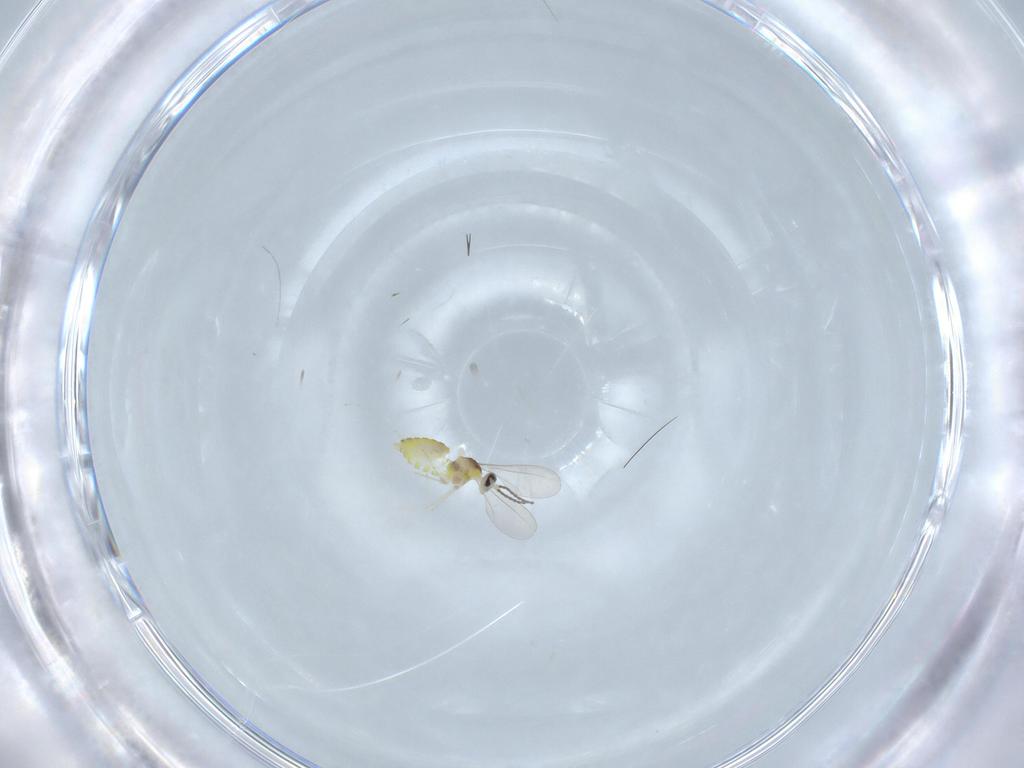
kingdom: Animalia
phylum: Arthropoda
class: Insecta
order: Diptera
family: Cecidomyiidae
